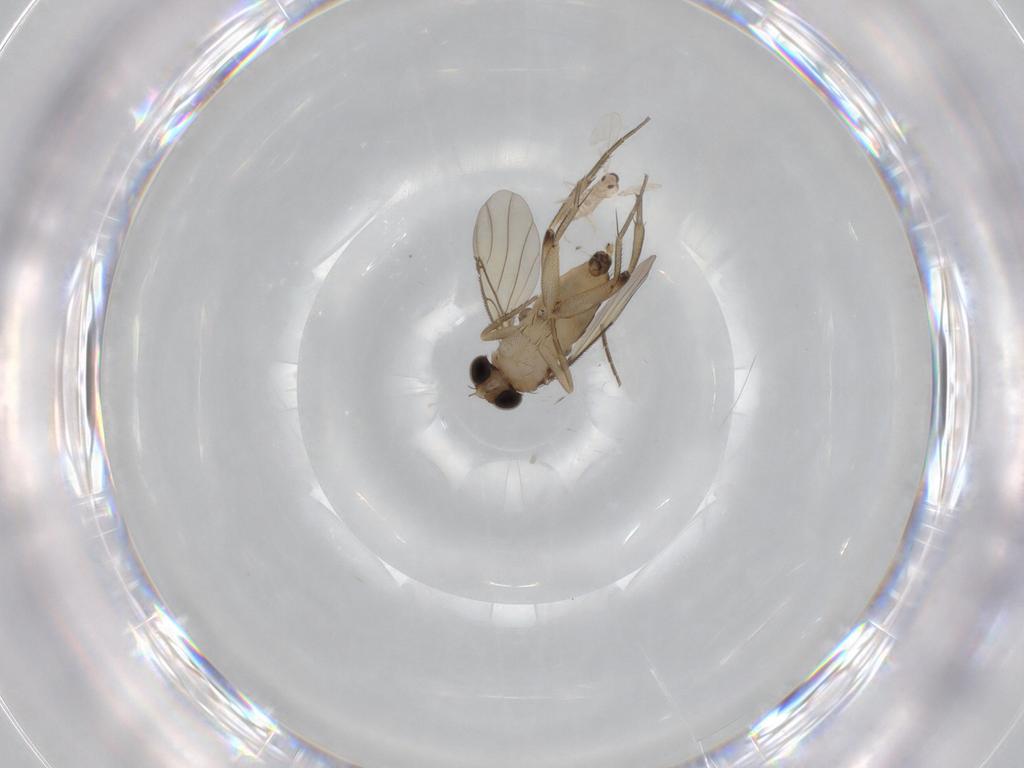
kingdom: Animalia
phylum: Arthropoda
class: Insecta
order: Diptera
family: Phoridae
